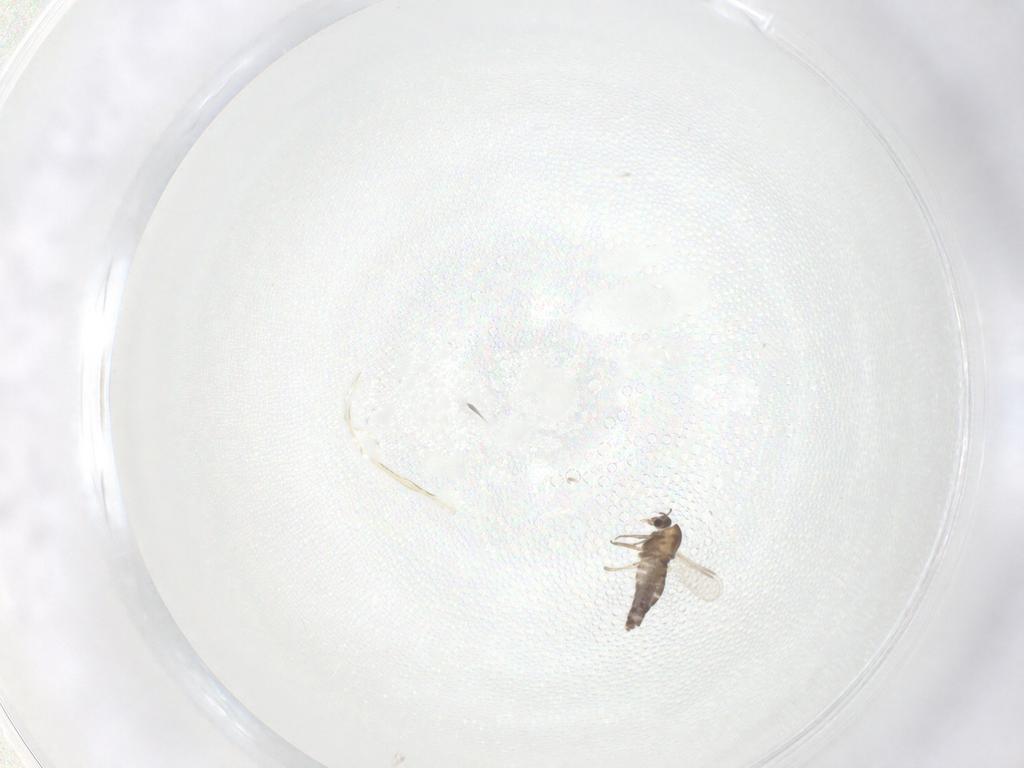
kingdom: Animalia
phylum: Arthropoda
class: Insecta
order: Diptera
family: Chironomidae
